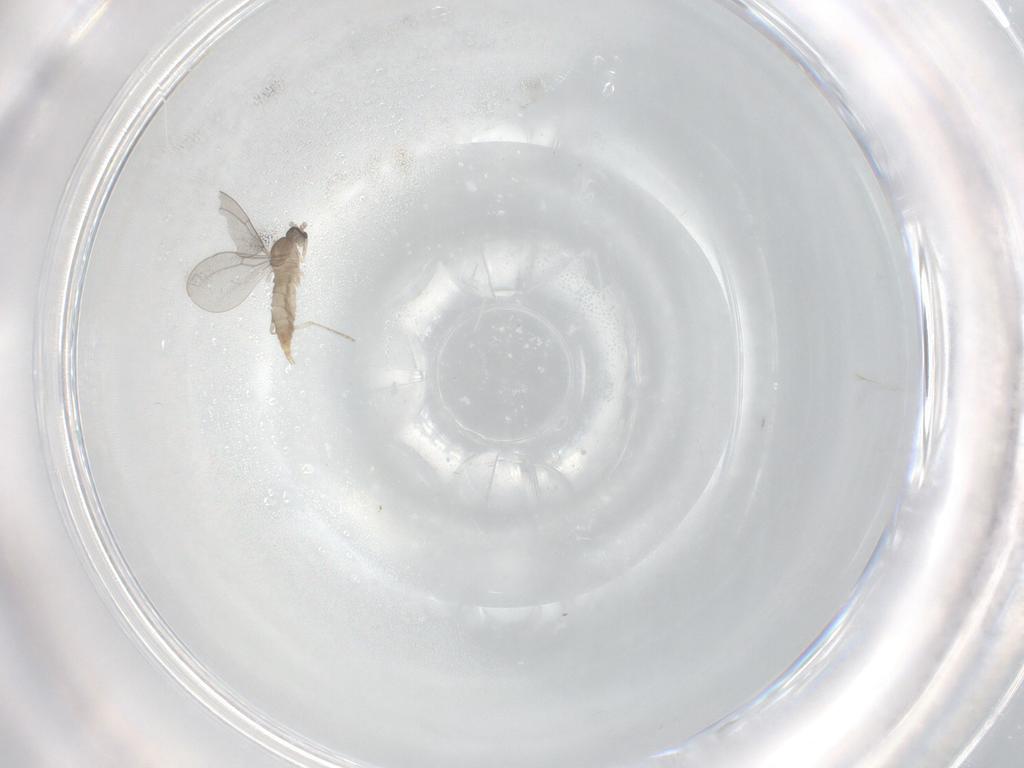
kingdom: Animalia
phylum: Arthropoda
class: Insecta
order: Diptera
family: Cecidomyiidae
